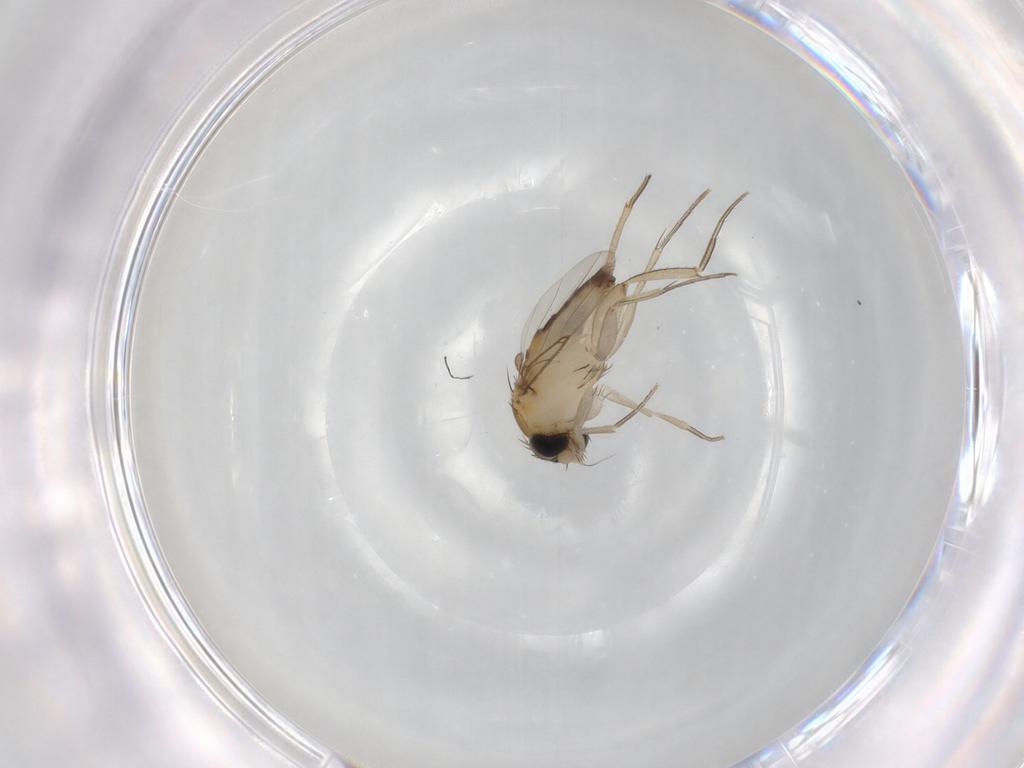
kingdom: Animalia
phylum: Arthropoda
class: Insecta
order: Diptera
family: Phoridae
